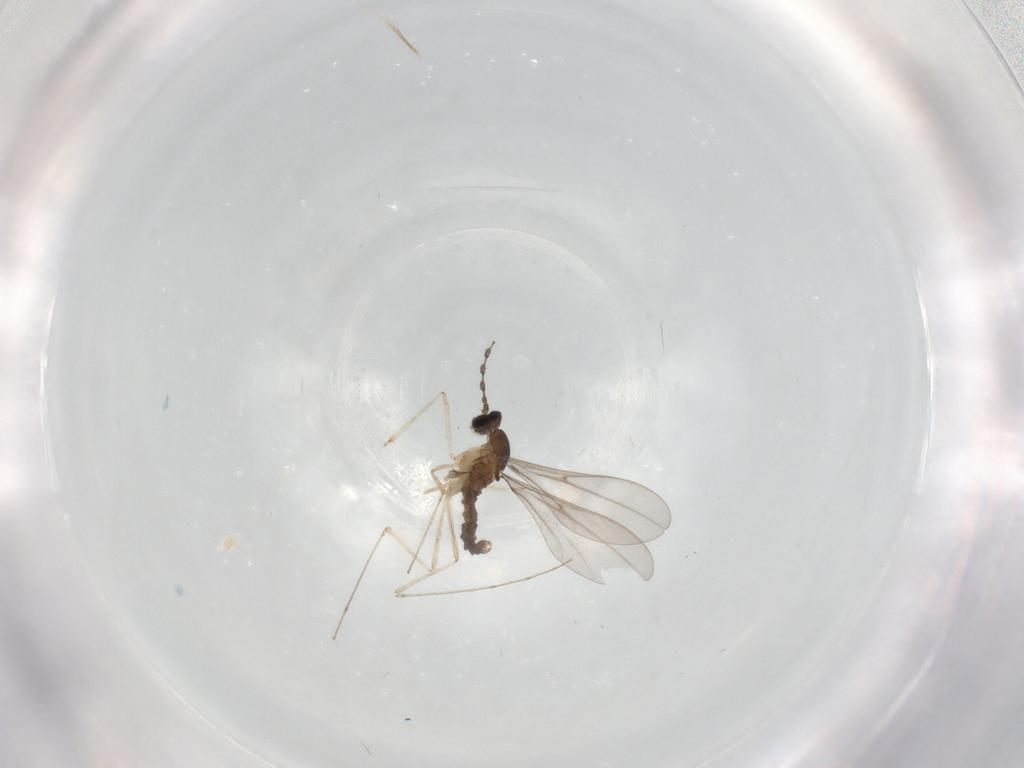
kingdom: Animalia
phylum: Arthropoda
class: Insecta
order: Diptera
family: Cecidomyiidae
